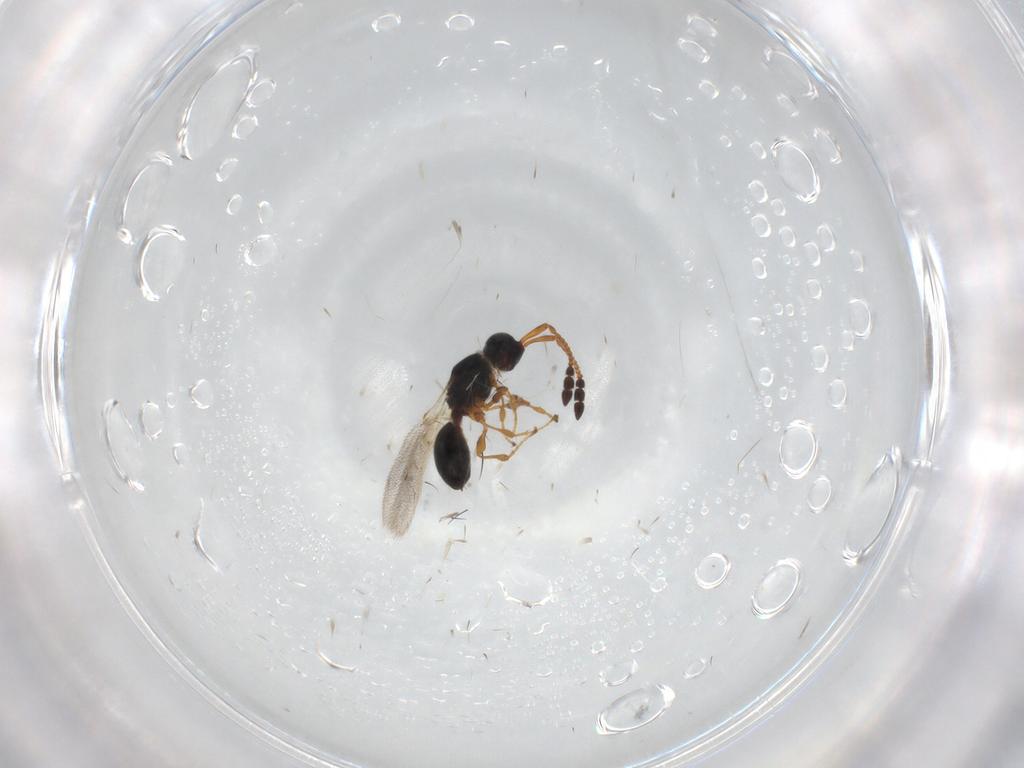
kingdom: Animalia
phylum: Arthropoda
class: Insecta
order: Hymenoptera
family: Diapriidae
